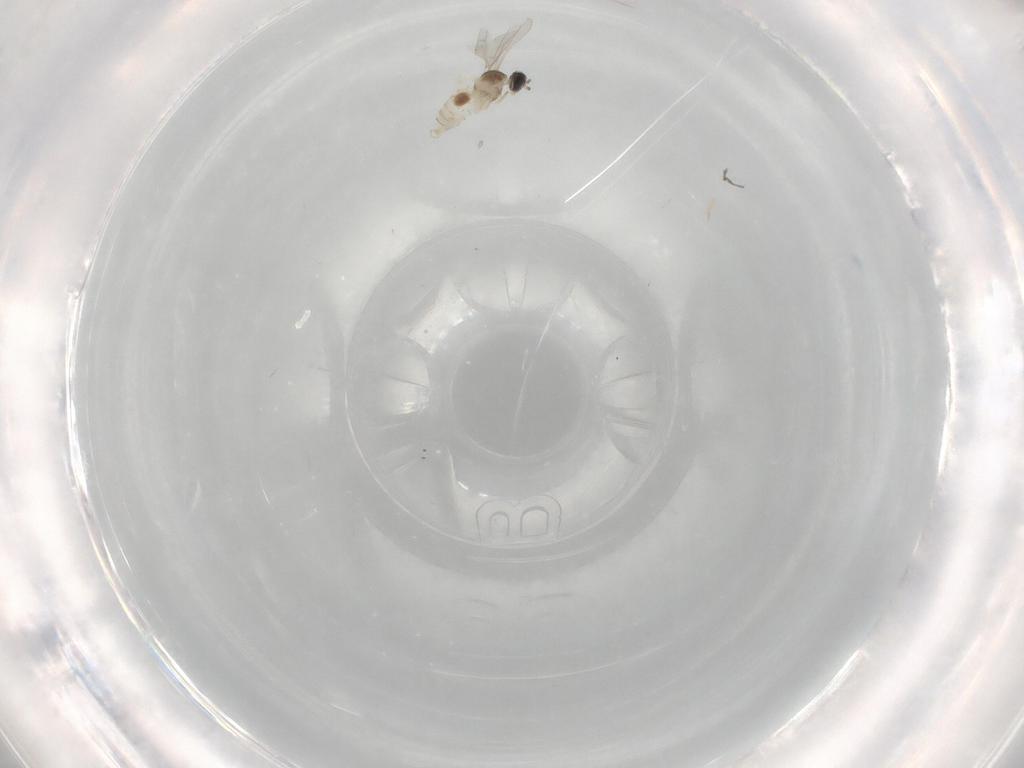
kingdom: Animalia
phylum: Arthropoda
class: Insecta
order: Diptera
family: Cecidomyiidae
